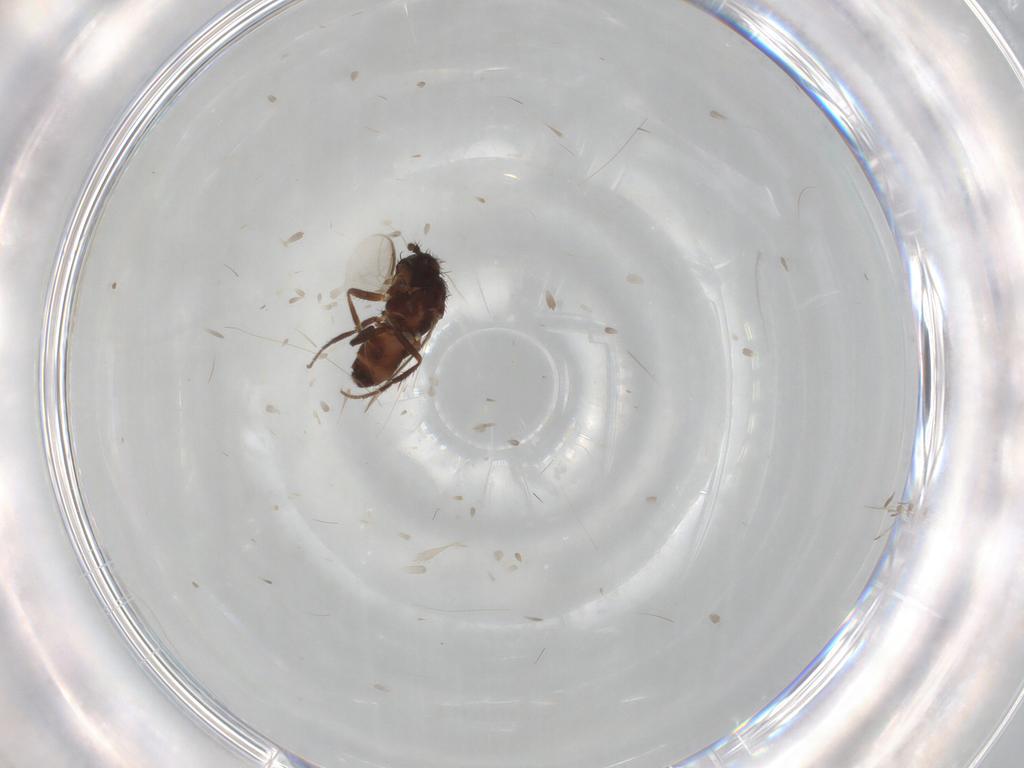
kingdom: Animalia
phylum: Arthropoda
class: Insecta
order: Diptera
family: Sphaeroceridae
